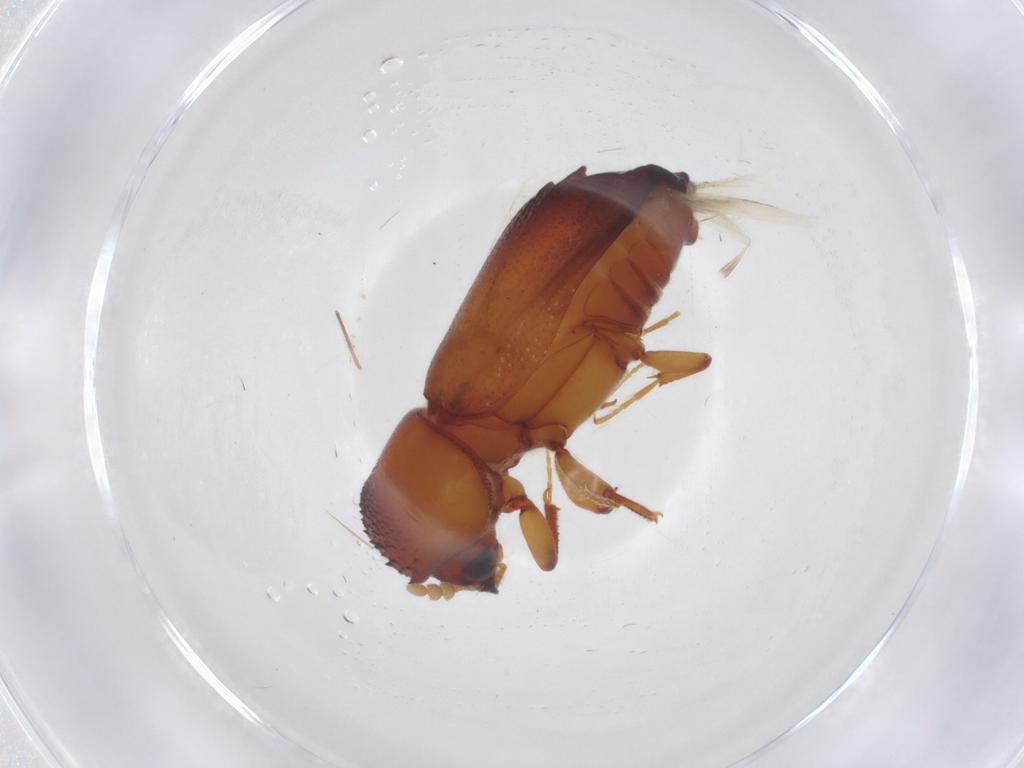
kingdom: Animalia
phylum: Arthropoda
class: Insecta
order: Coleoptera
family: Bostrichidae
